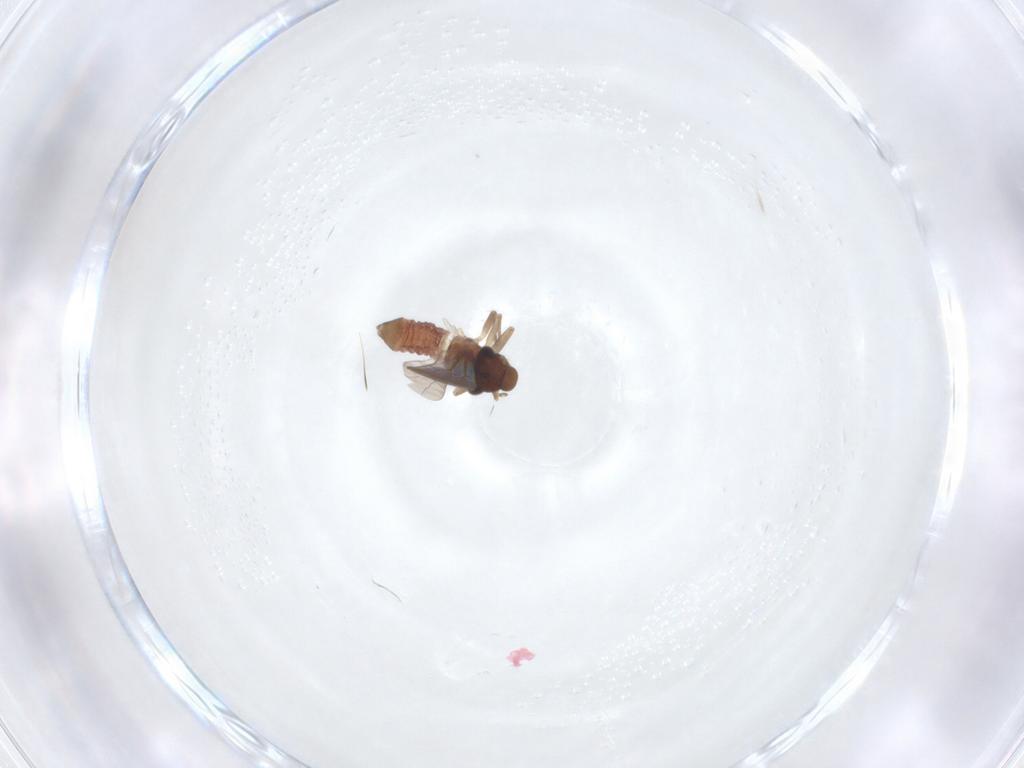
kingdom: Animalia
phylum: Arthropoda
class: Insecta
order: Psocodea
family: Lepidopsocidae
